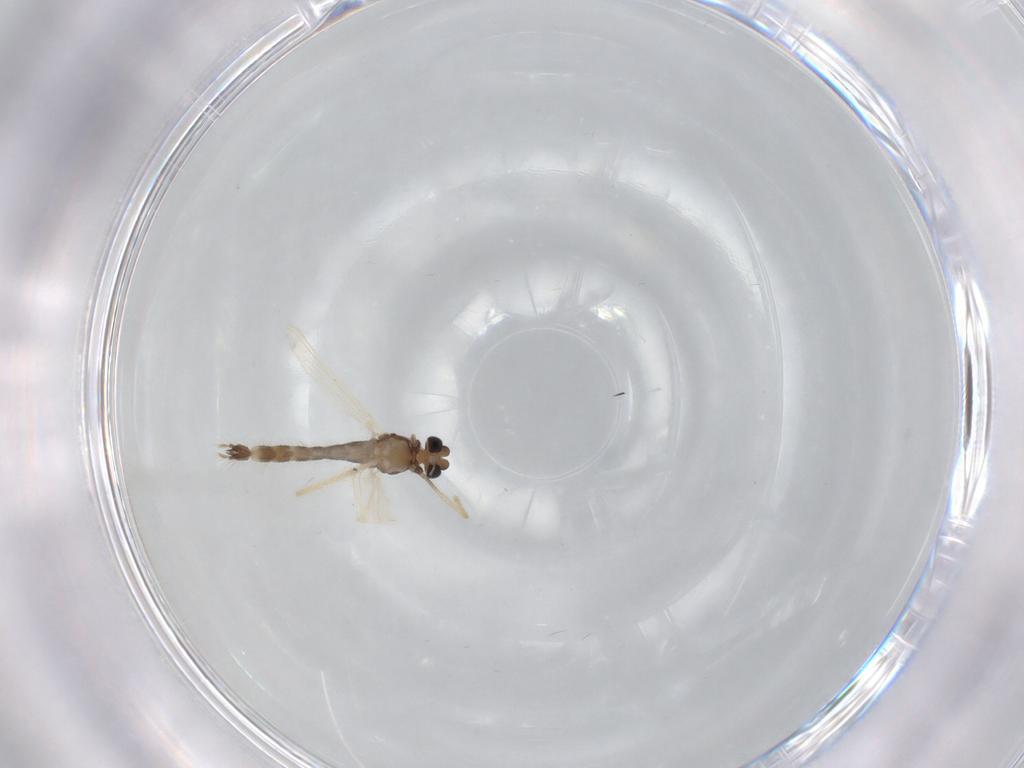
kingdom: Animalia
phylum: Arthropoda
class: Insecta
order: Diptera
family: Chironomidae
